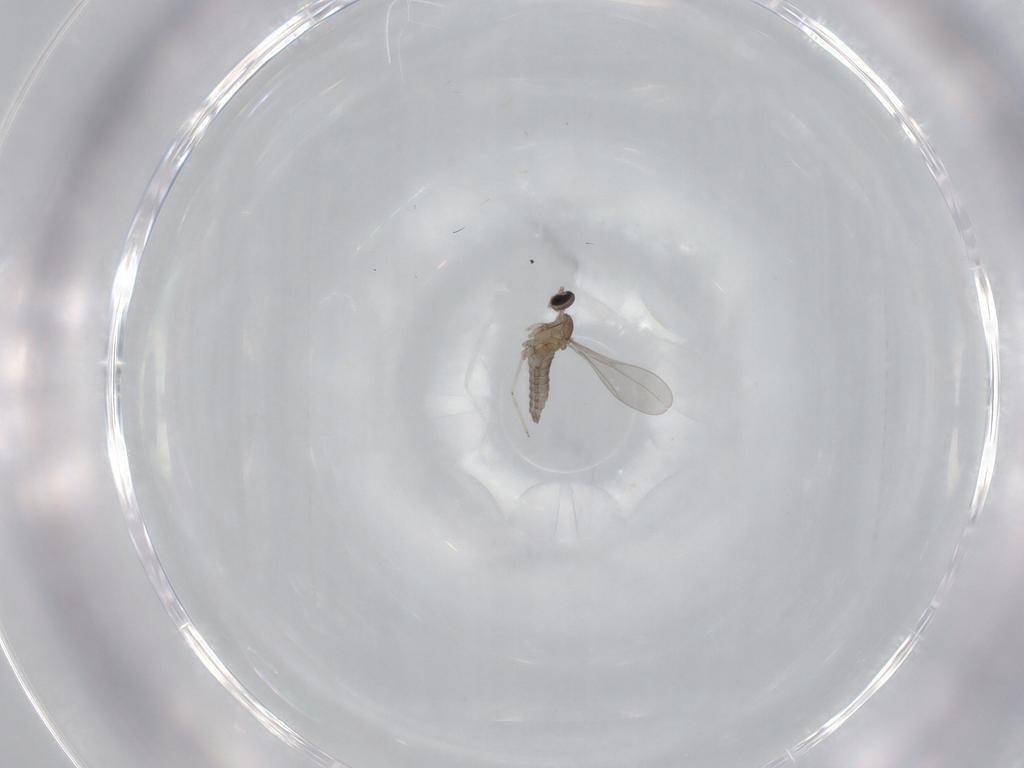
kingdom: Animalia
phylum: Arthropoda
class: Insecta
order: Diptera
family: Cecidomyiidae
